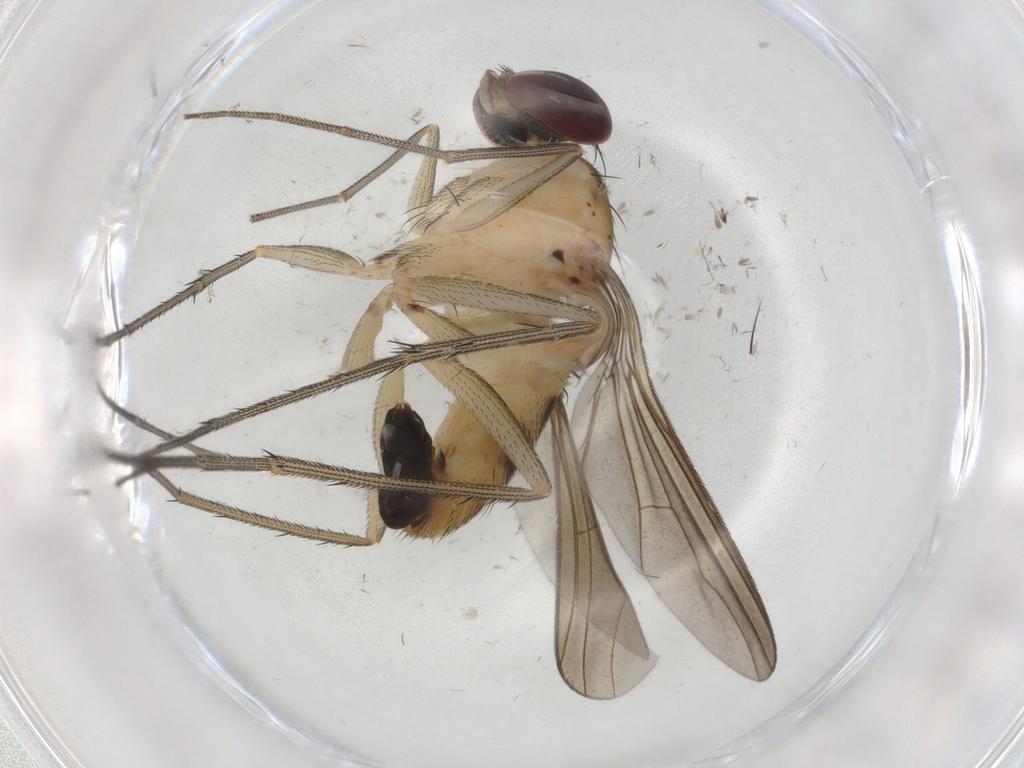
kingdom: Animalia
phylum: Arthropoda
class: Insecta
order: Diptera
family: Dolichopodidae
